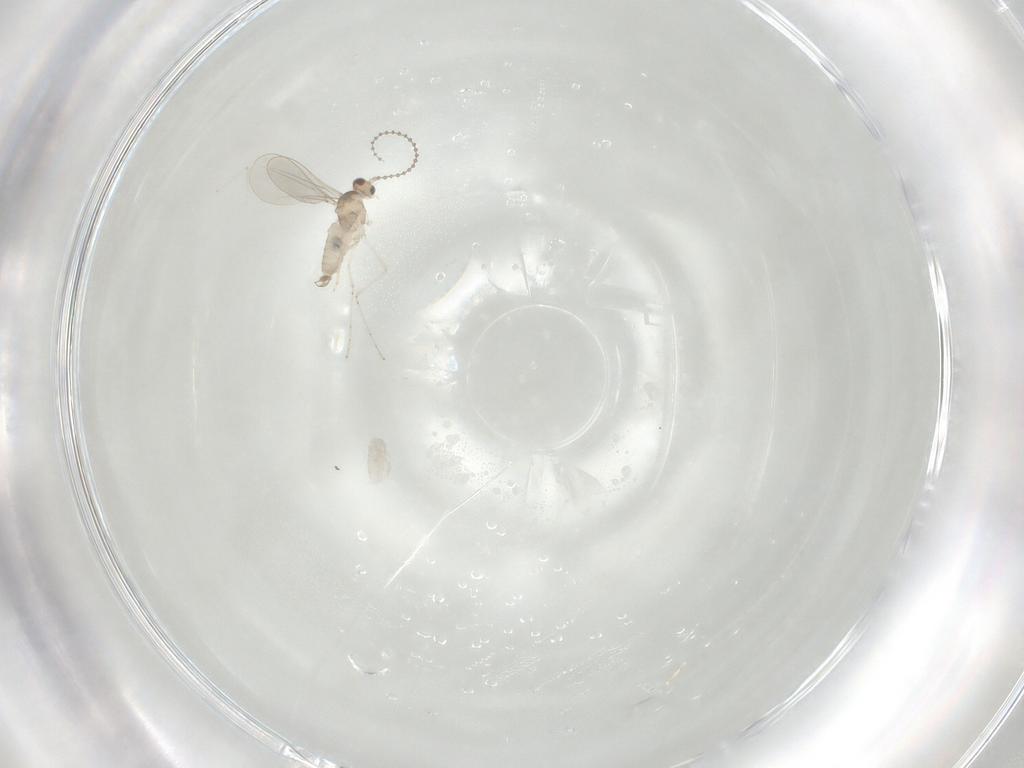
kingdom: Animalia
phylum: Arthropoda
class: Insecta
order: Diptera
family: Cecidomyiidae
